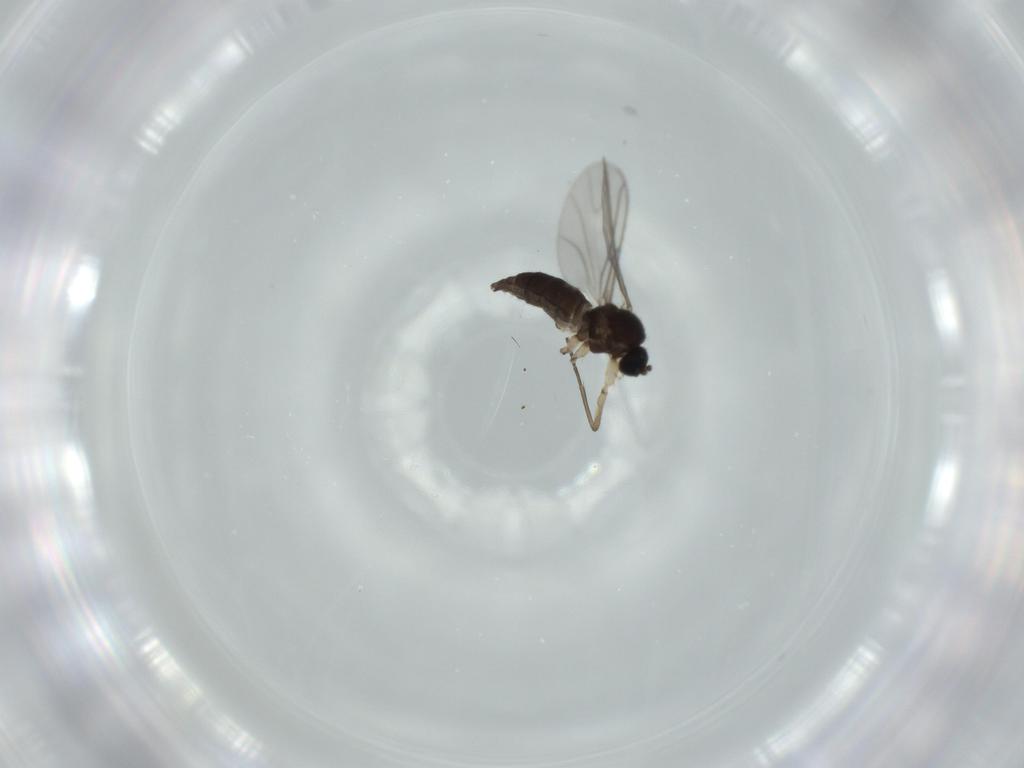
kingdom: Animalia
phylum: Arthropoda
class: Insecta
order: Diptera
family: Sciaridae
